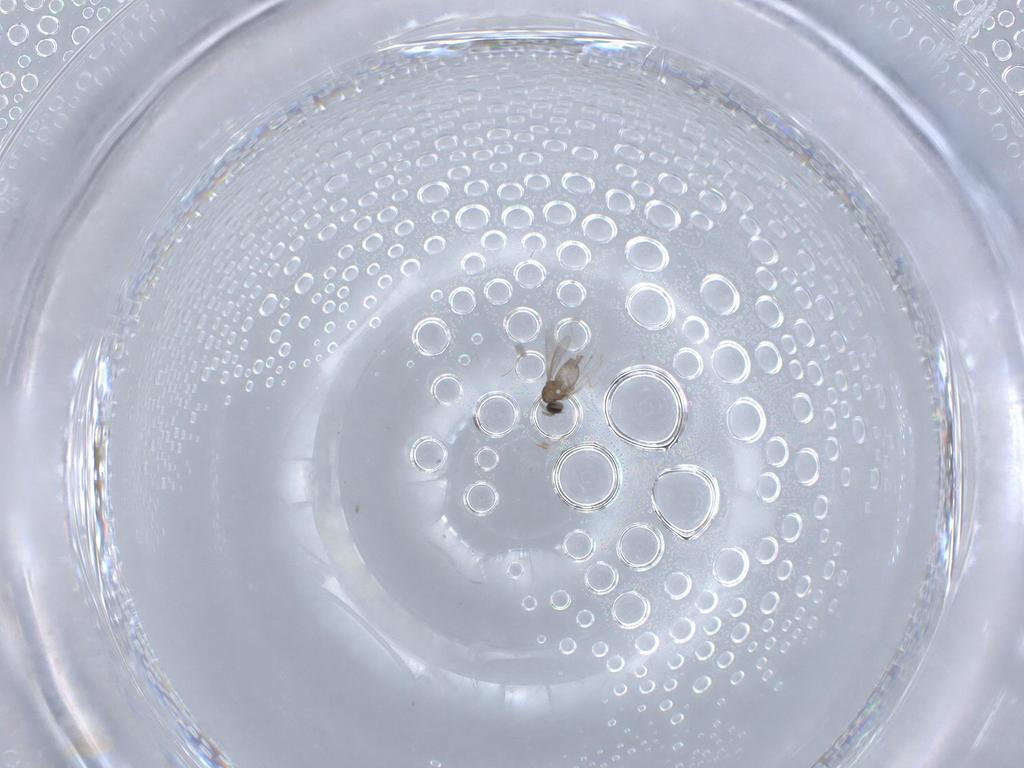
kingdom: Animalia
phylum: Arthropoda
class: Insecta
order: Diptera
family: Cecidomyiidae
